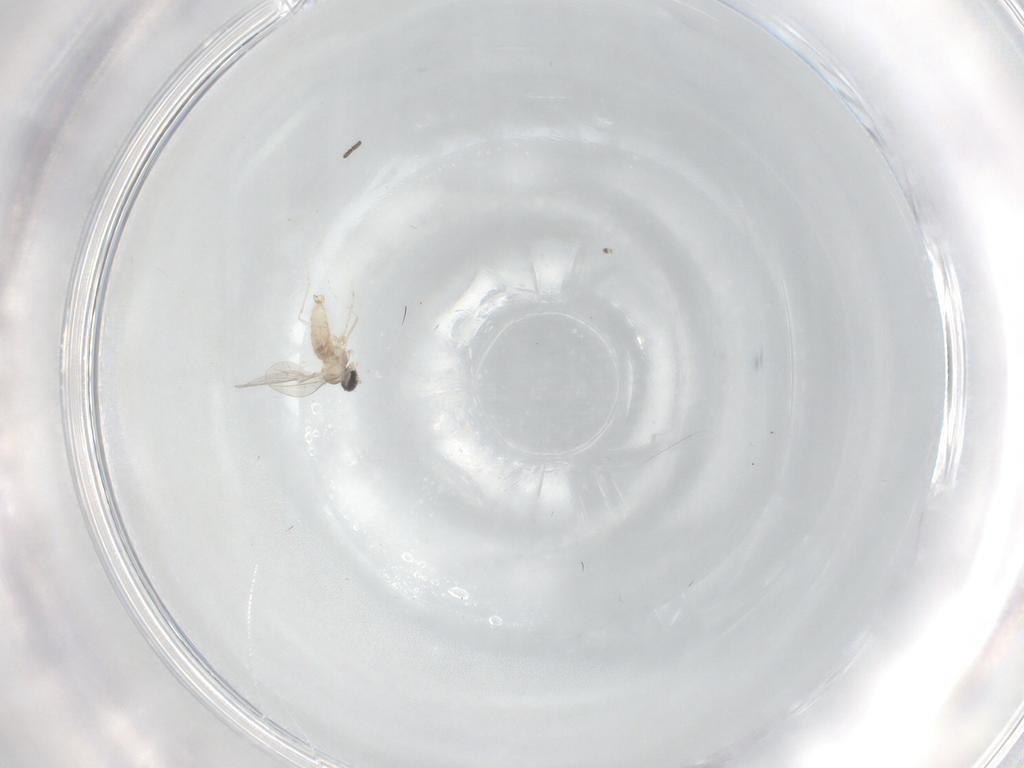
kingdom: Animalia
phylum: Arthropoda
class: Insecta
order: Diptera
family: Cecidomyiidae
